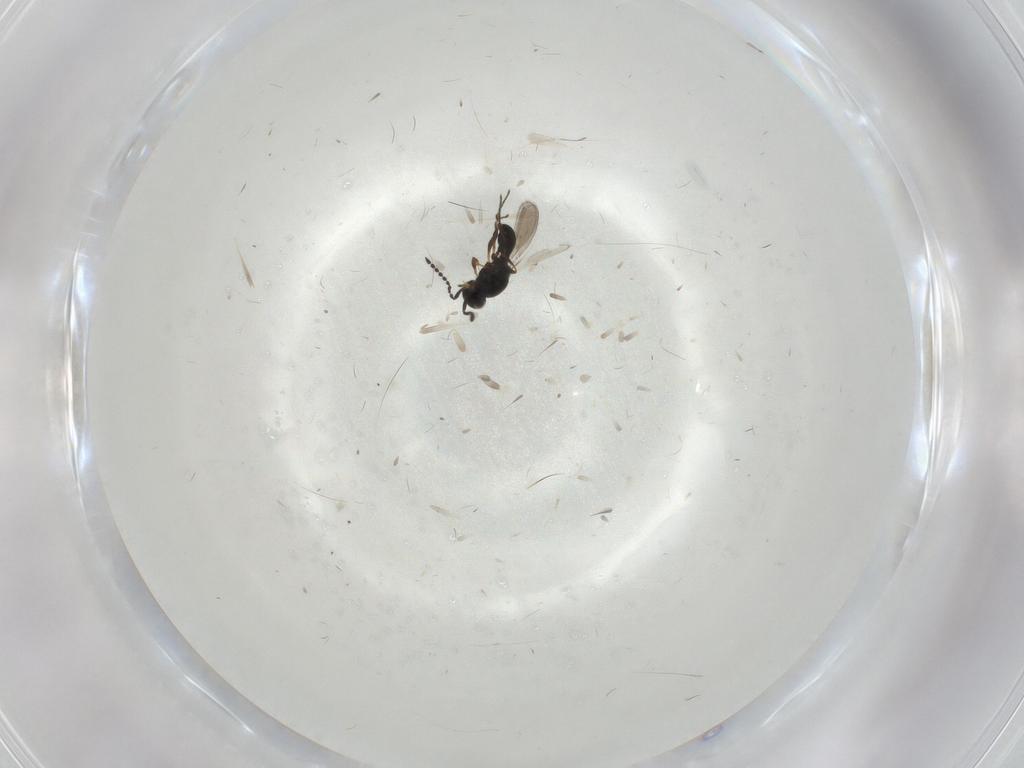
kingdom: Animalia
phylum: Arthropoda
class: Insecta
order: Hymenoptera
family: Platygastridae
